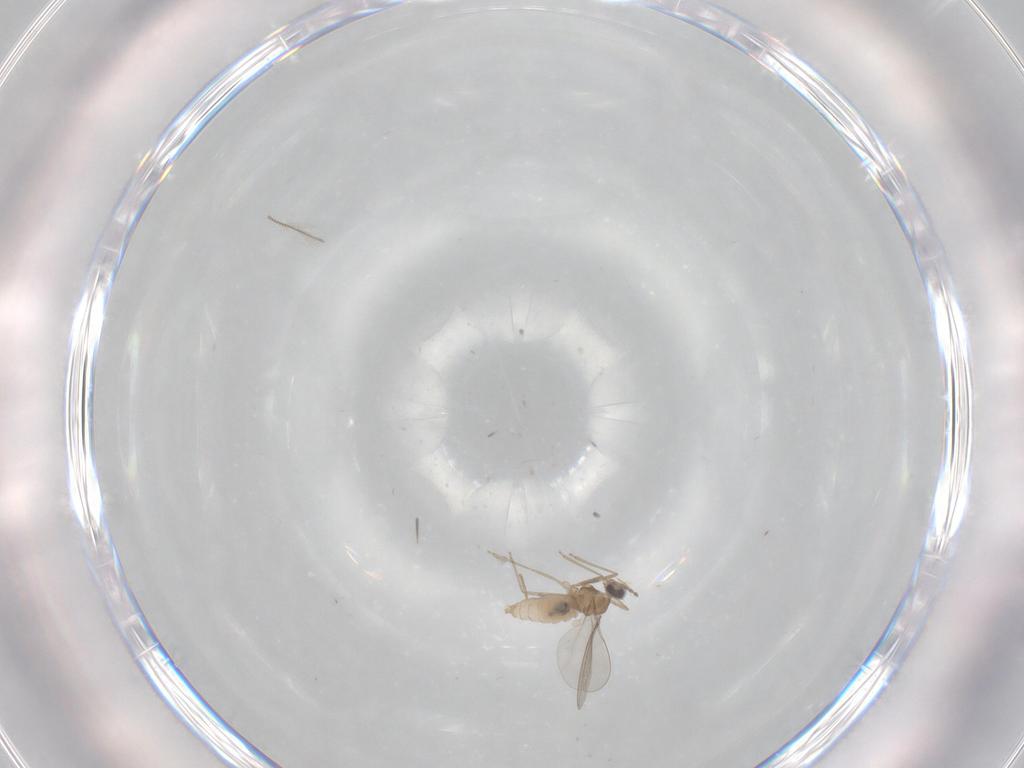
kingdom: Animalia
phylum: Arthropoda
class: Insecta
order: Diptera
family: Cecidomyiidae
